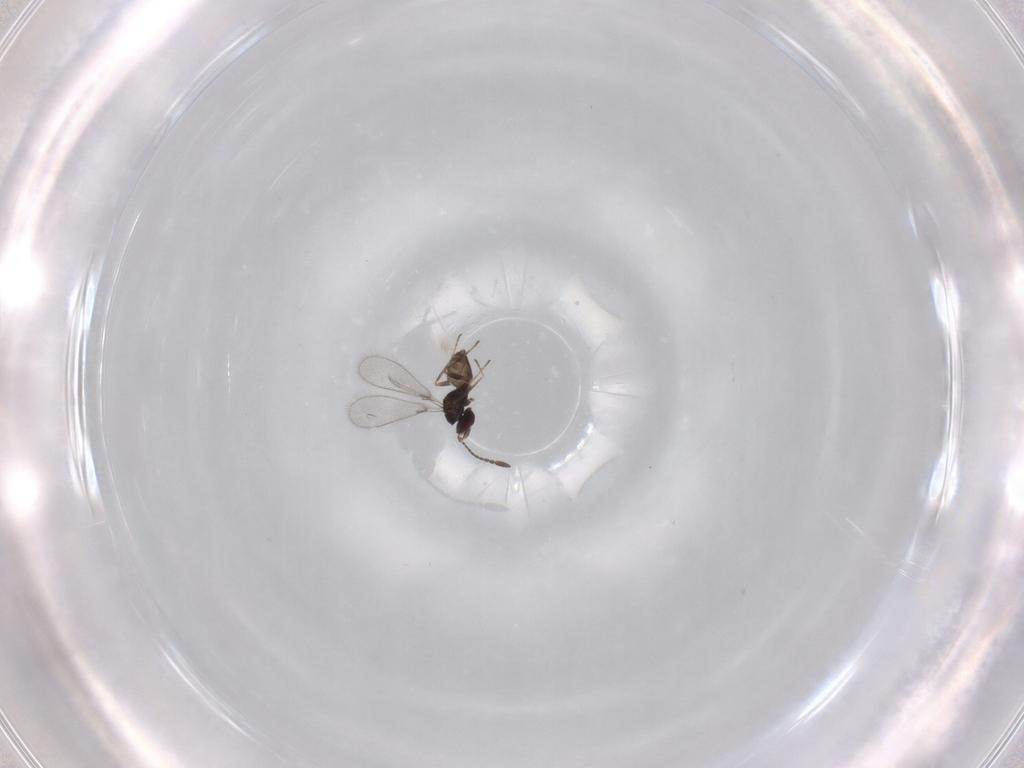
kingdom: Animalia
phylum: Arthropoda
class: Insecta
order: Hymenoptera
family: Mymaridae
